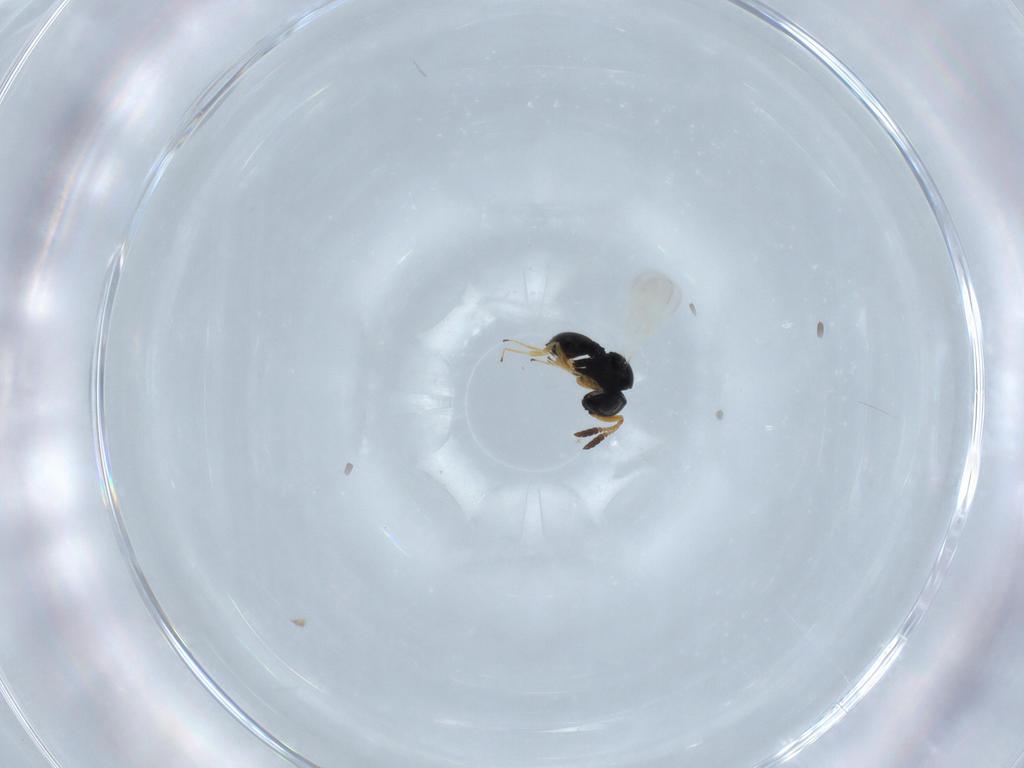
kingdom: Animalia
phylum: Arthropoda
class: Insecta
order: Hymenoptera
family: Scelionidae
